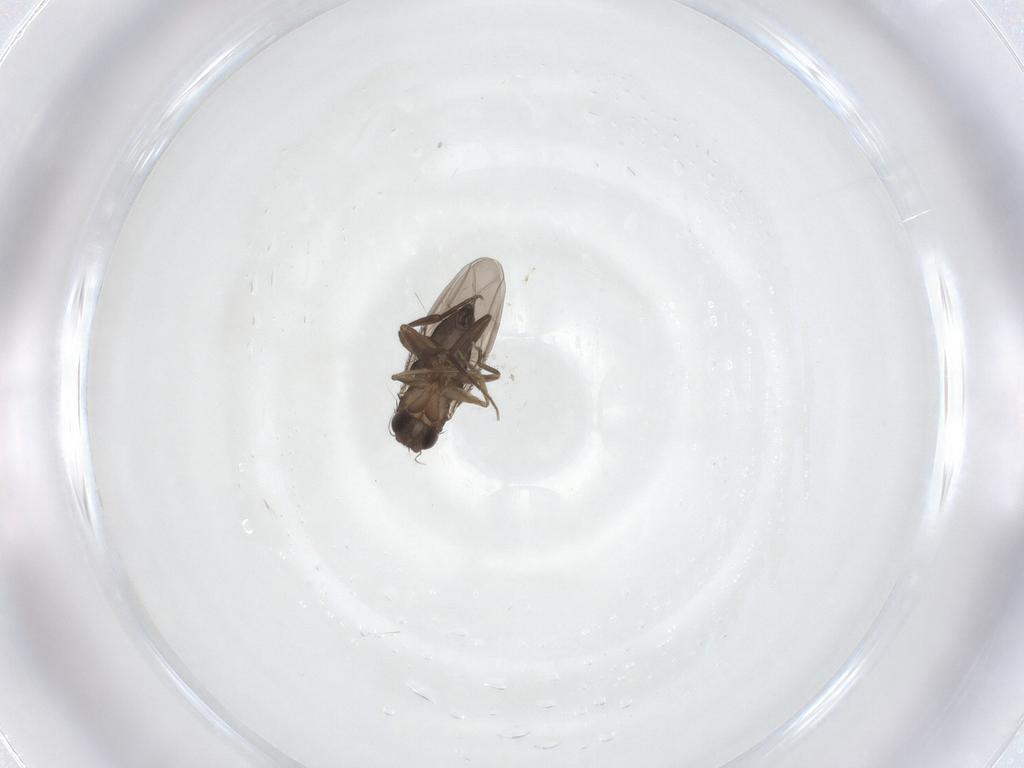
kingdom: Animalia
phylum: Arthropoda
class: Insecta
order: Diptera
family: Phoridae
